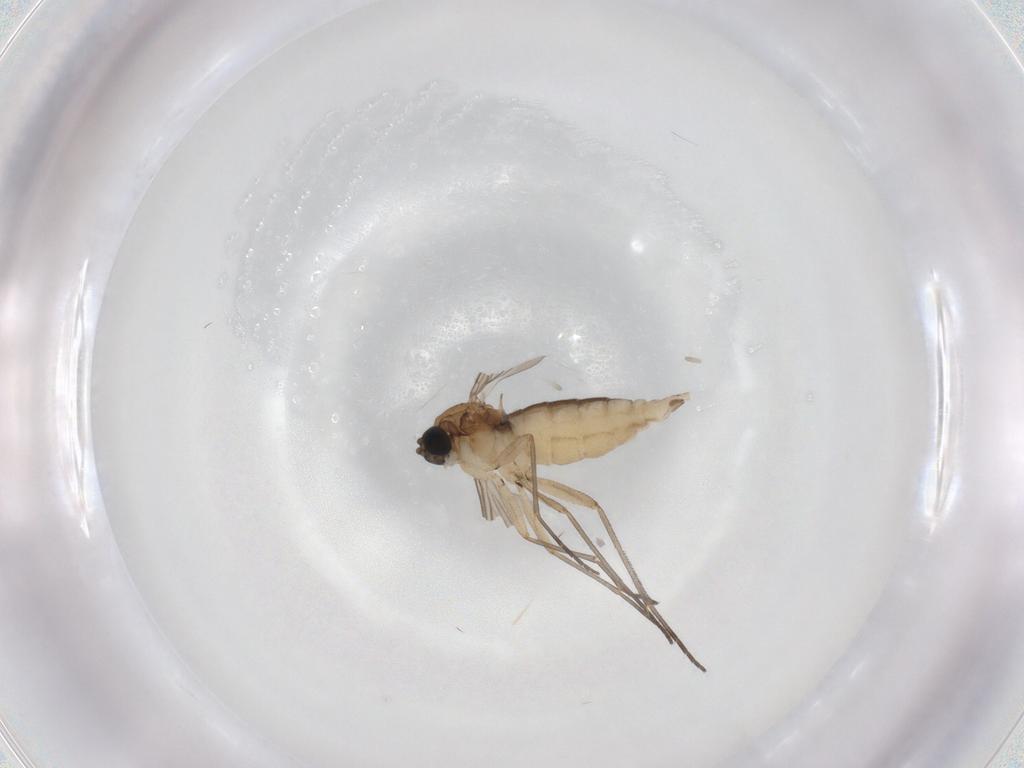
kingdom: Animalia
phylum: Arthropoda
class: Insecta
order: Diptera
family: Sciaridae
